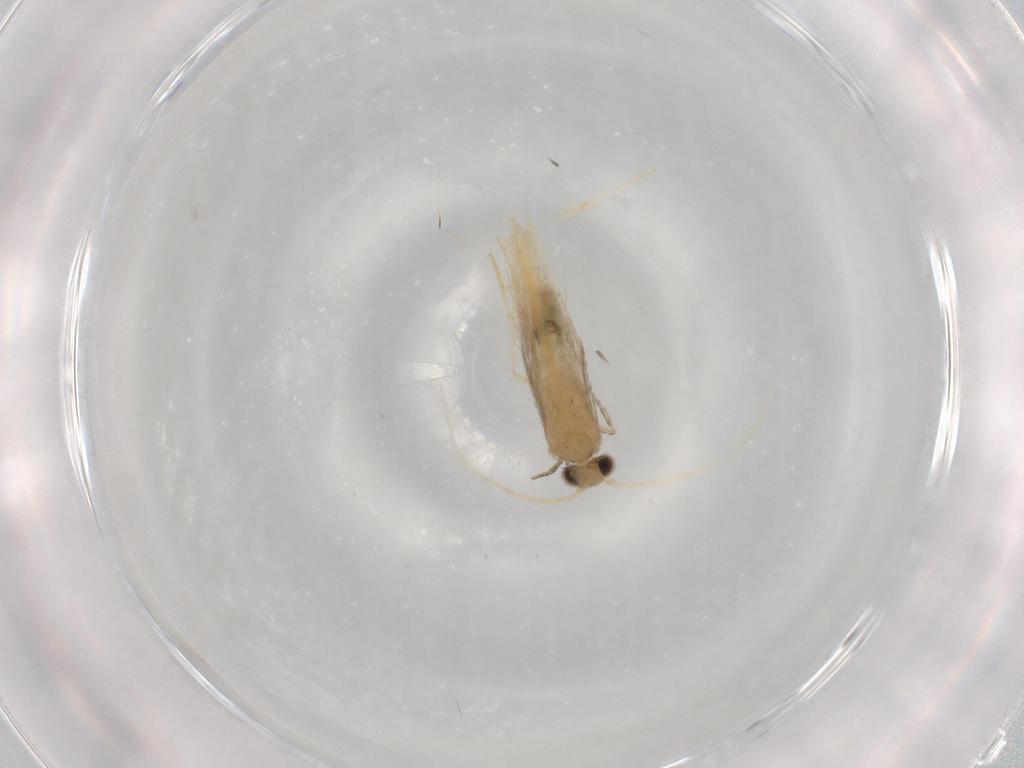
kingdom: Animalia
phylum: Arthropoda
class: Insecta
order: Trichoptera
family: Hydroptilidae
